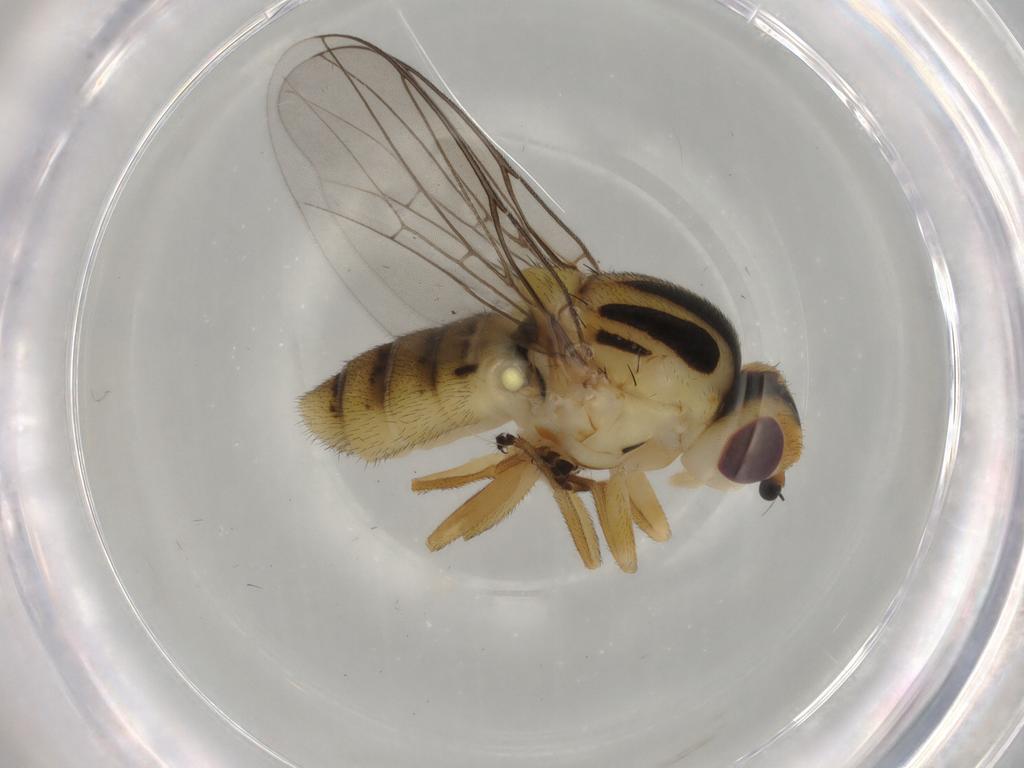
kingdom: Animalia
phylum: Arthropoda
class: Insecta
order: Diptera
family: Chloropidae
